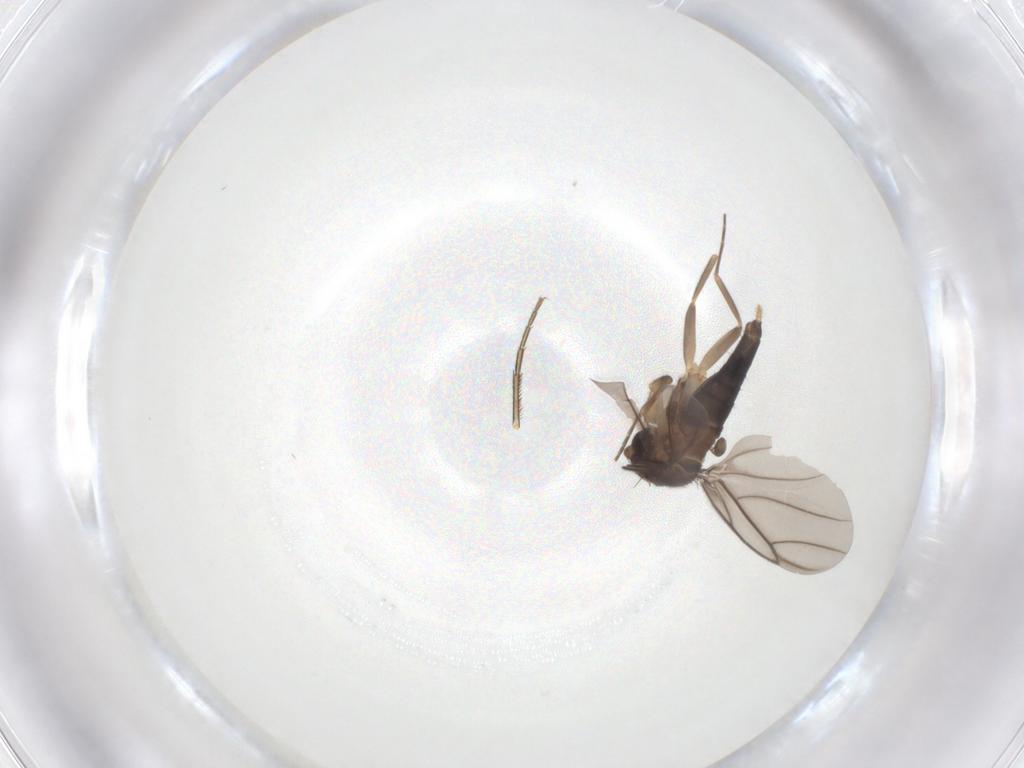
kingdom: Animalia
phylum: Arthropoda
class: Insecta
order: Diptera
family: Phoridae
